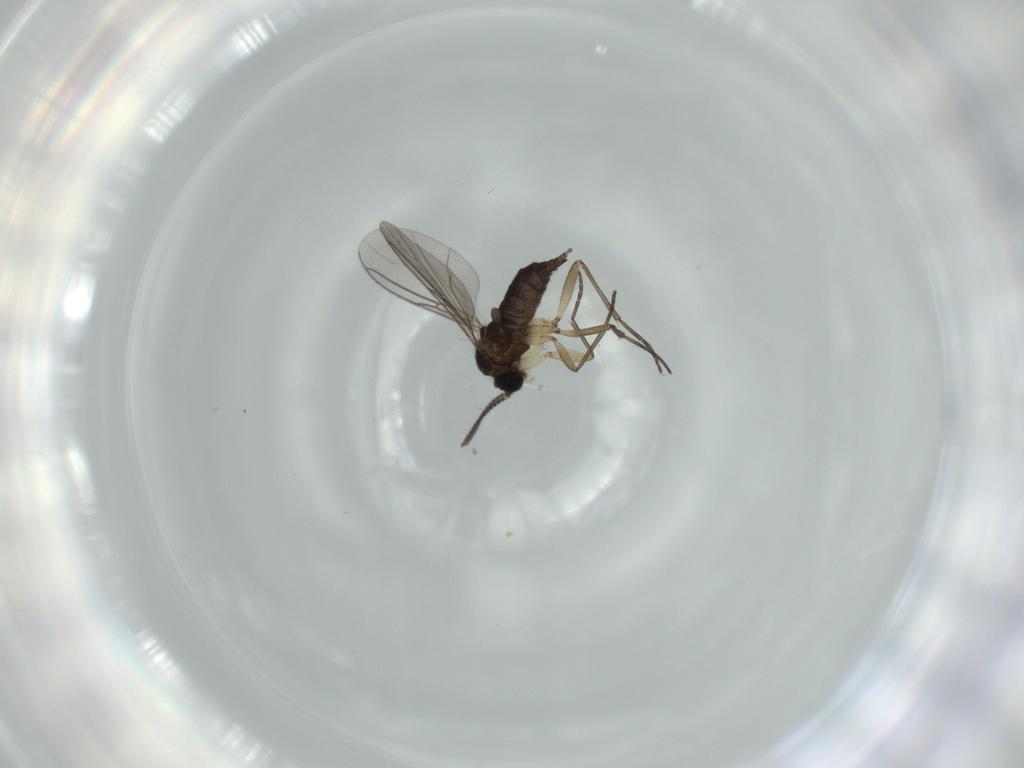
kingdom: Animalia
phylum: Arthropoda
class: Insecta
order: Diptera
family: Sciaridae
